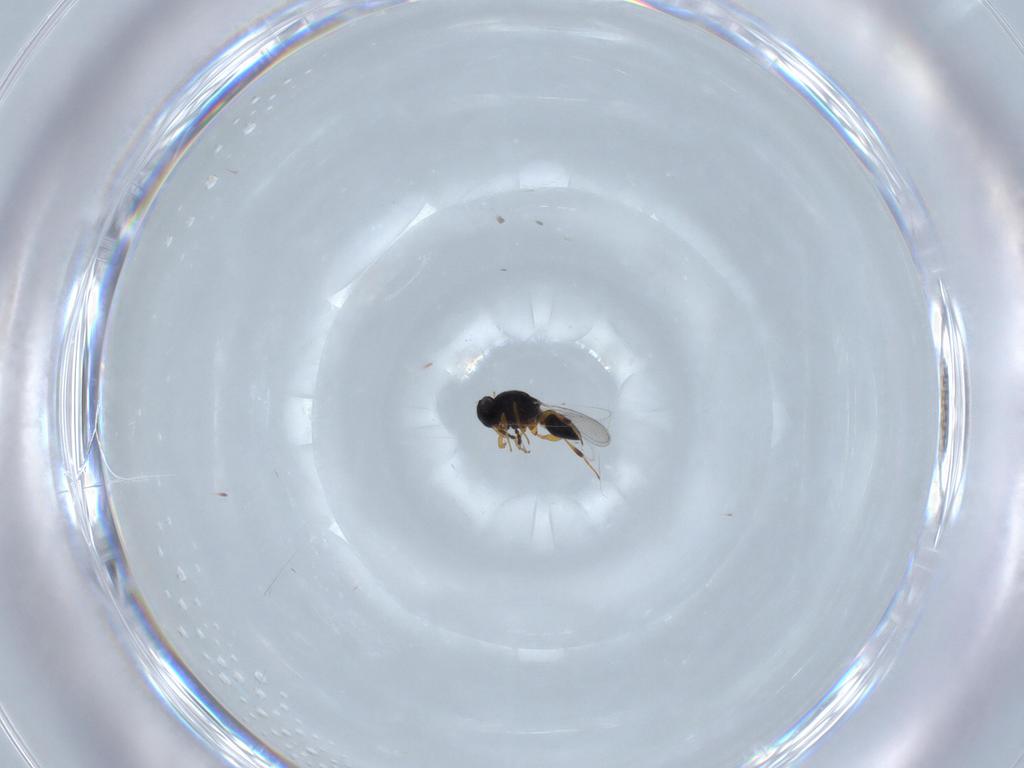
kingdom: Animalia
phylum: Arthropoda
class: Insecta
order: Hymenoptera
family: Platygastridae
